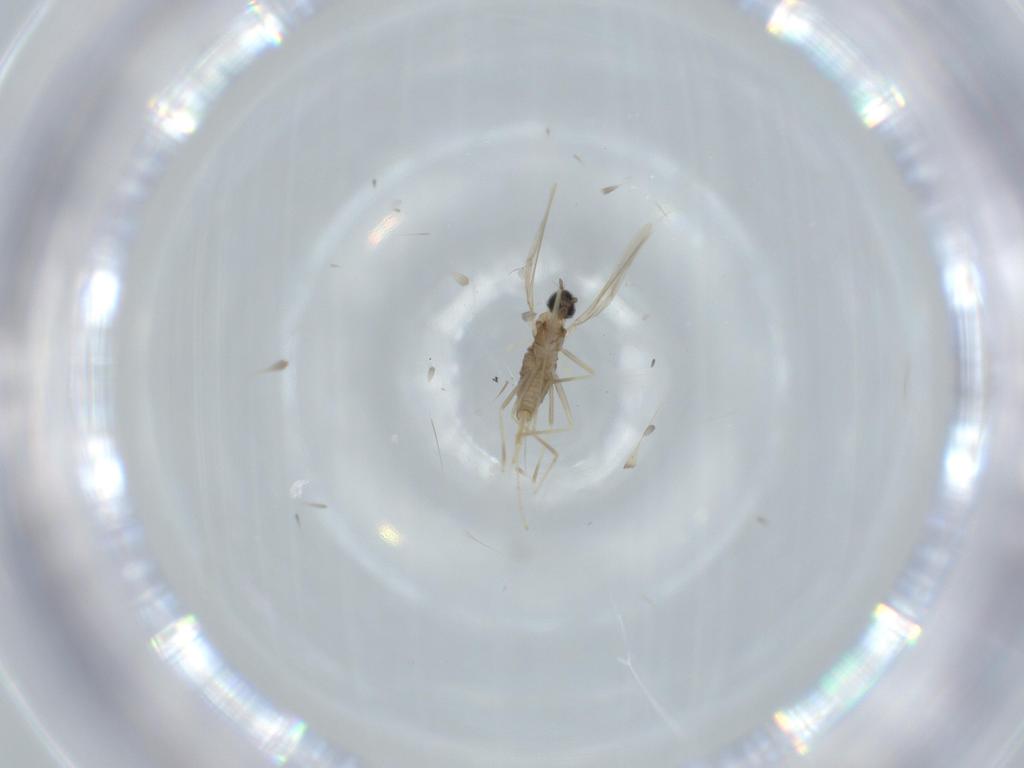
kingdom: Animalia
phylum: Arthropoda
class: Insecta
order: Diptera
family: Cecidomyiidae
